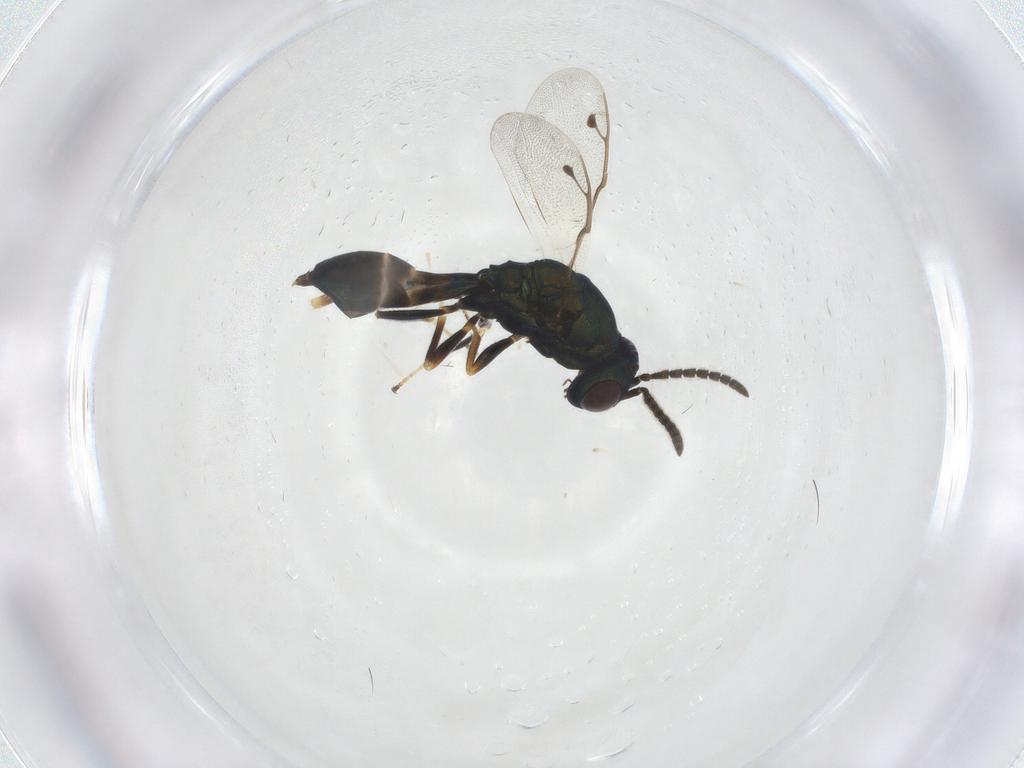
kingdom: Animalia
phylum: Arthropoda
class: Insecta
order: Hymenoptera
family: Pteromalidae
